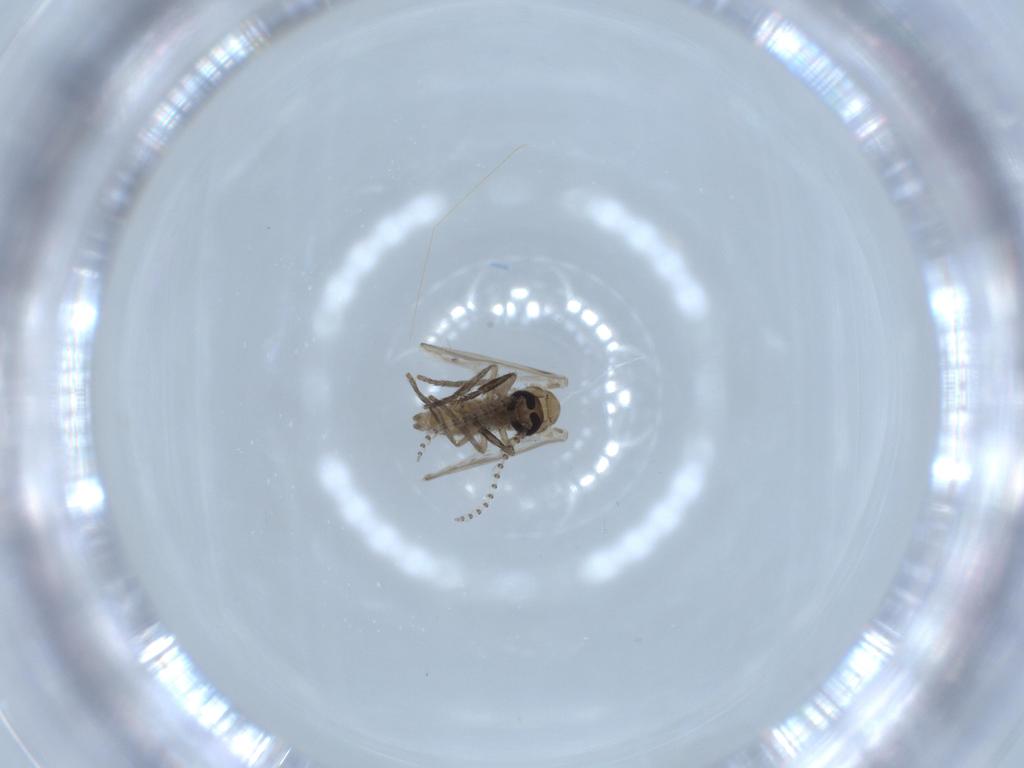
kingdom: Animalia
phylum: Arthropoda
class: Insecta
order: Diptera
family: Psychodidae
